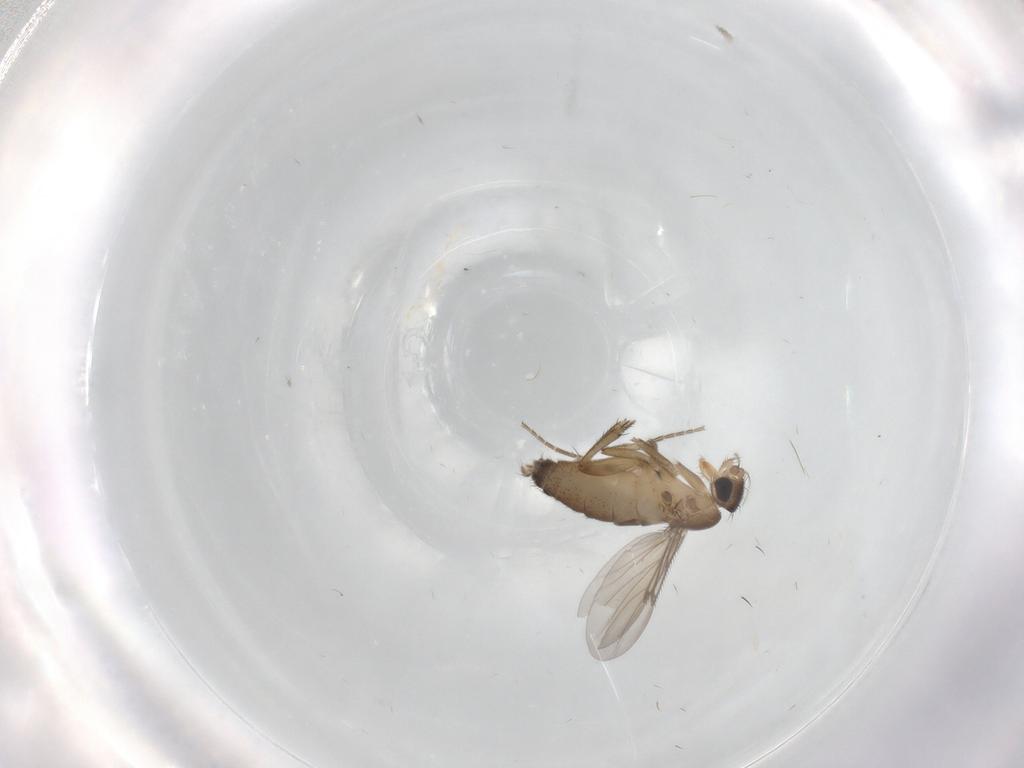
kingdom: Animalia
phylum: Arthropoda
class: Insecta
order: Diptera
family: Phoridae
